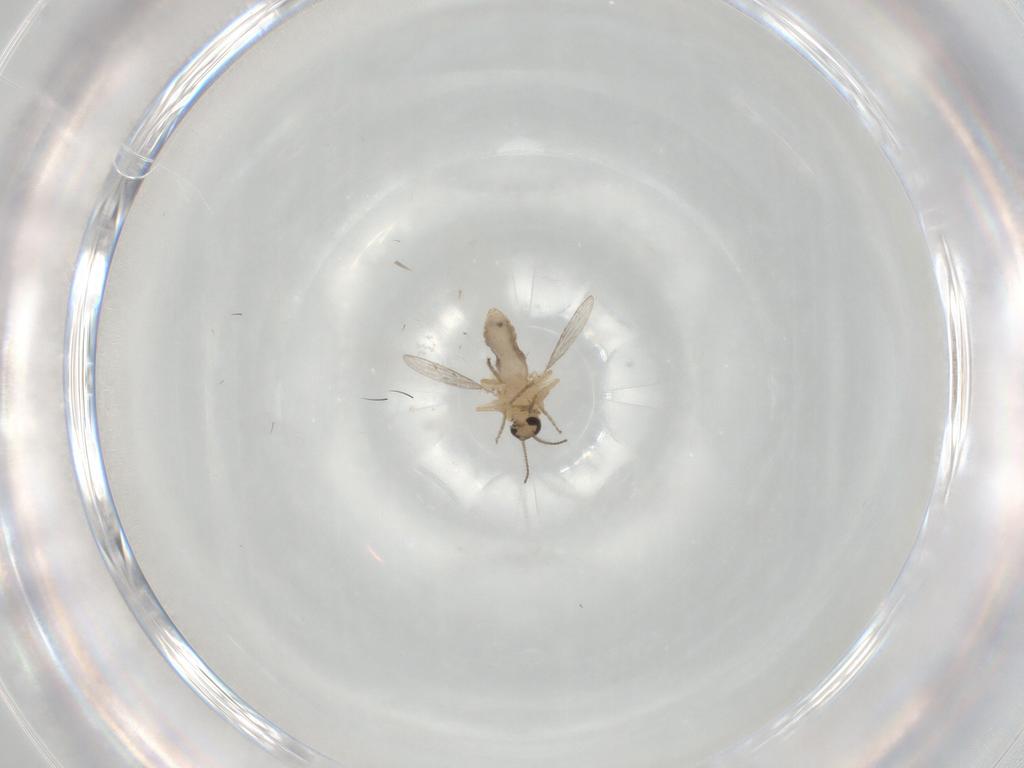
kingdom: Animalia
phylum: Arthropoda
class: Insecta
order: Diptera
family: Ceratopogonidae
